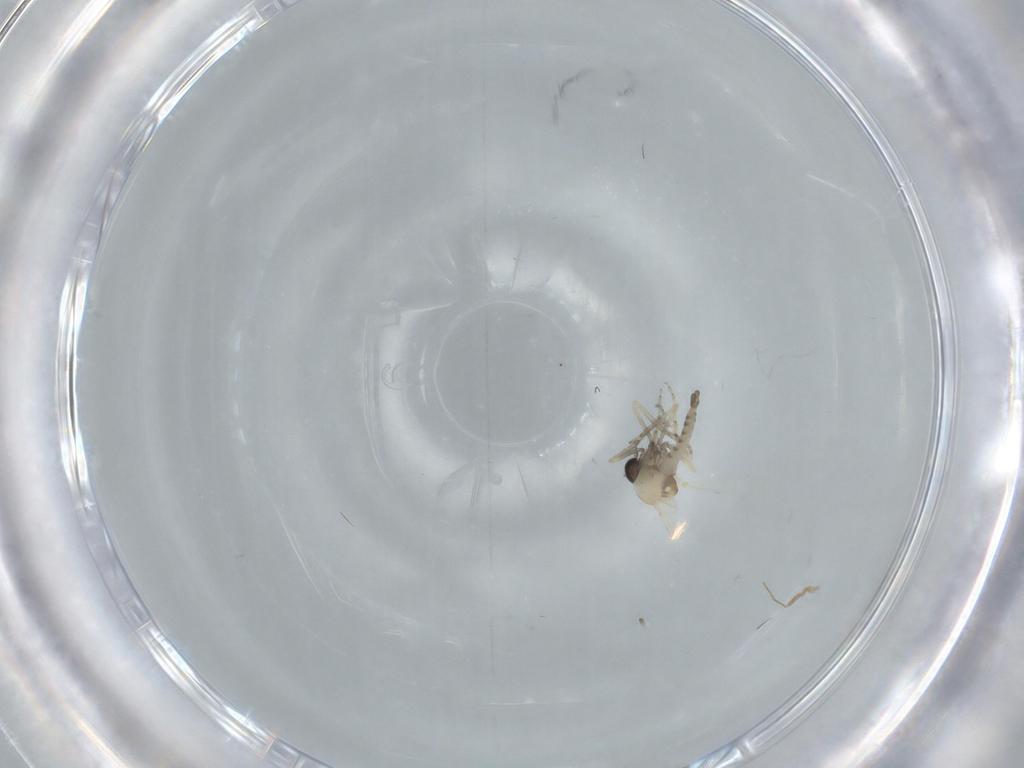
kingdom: Animalia
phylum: Arthropoda
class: Insecta
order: Diptera
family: Ceratopogonidae
